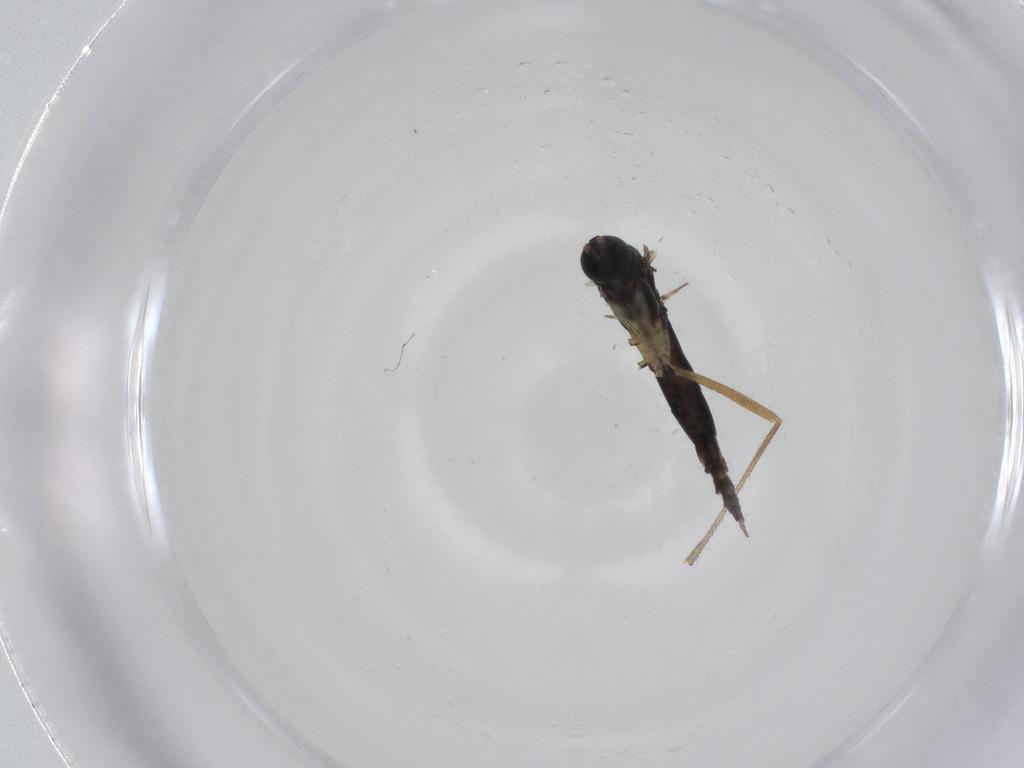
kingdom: Animalia
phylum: Arthropoda
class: Insecta
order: Diptera
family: Sciaridae
